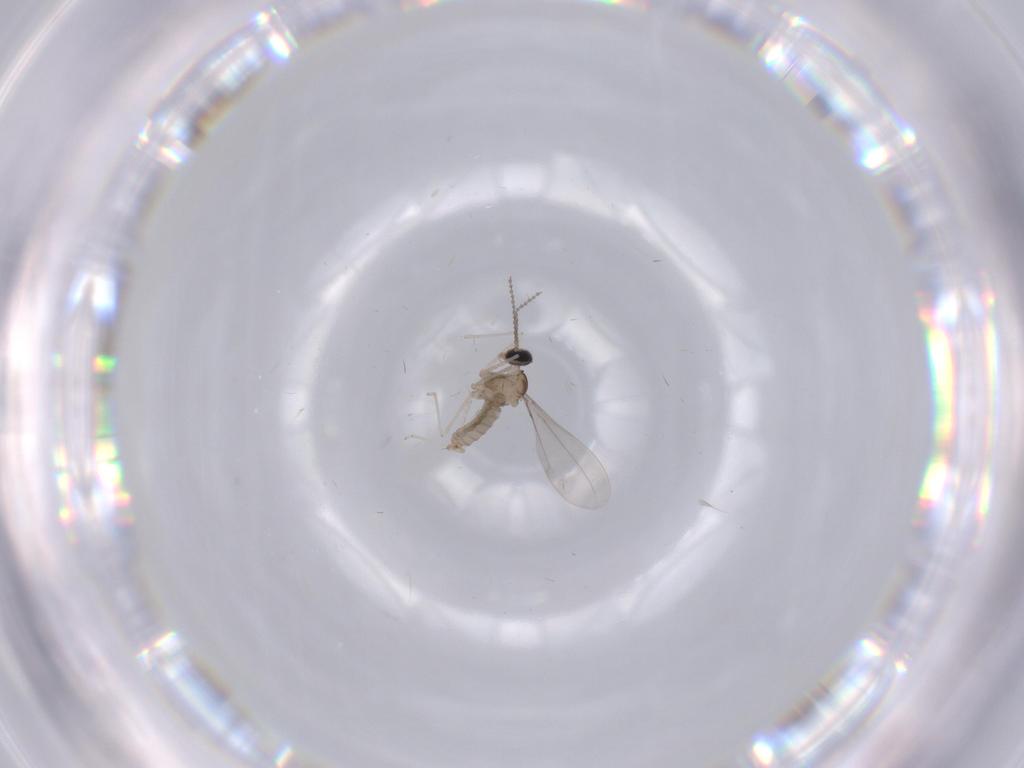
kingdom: Animalia
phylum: Arthropoda
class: Insecta
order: Diptera
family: Cecidomyiidae
